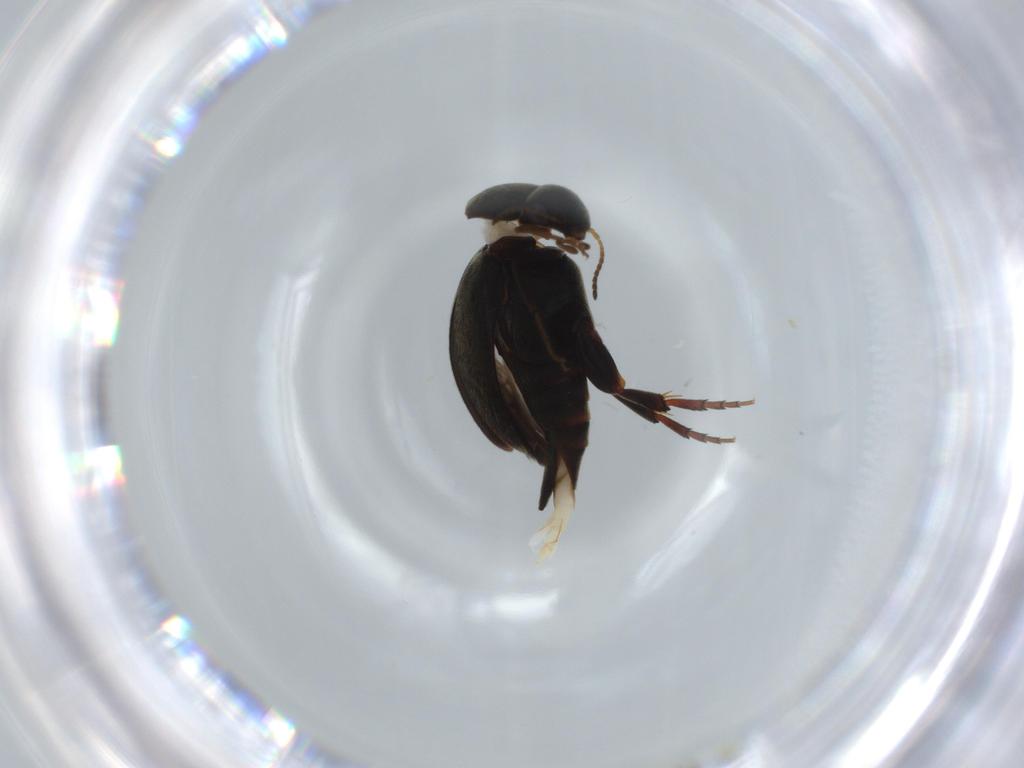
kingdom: Animalia
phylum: Arthropoda
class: Insecta
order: Coleoptera
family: Mordellidae
